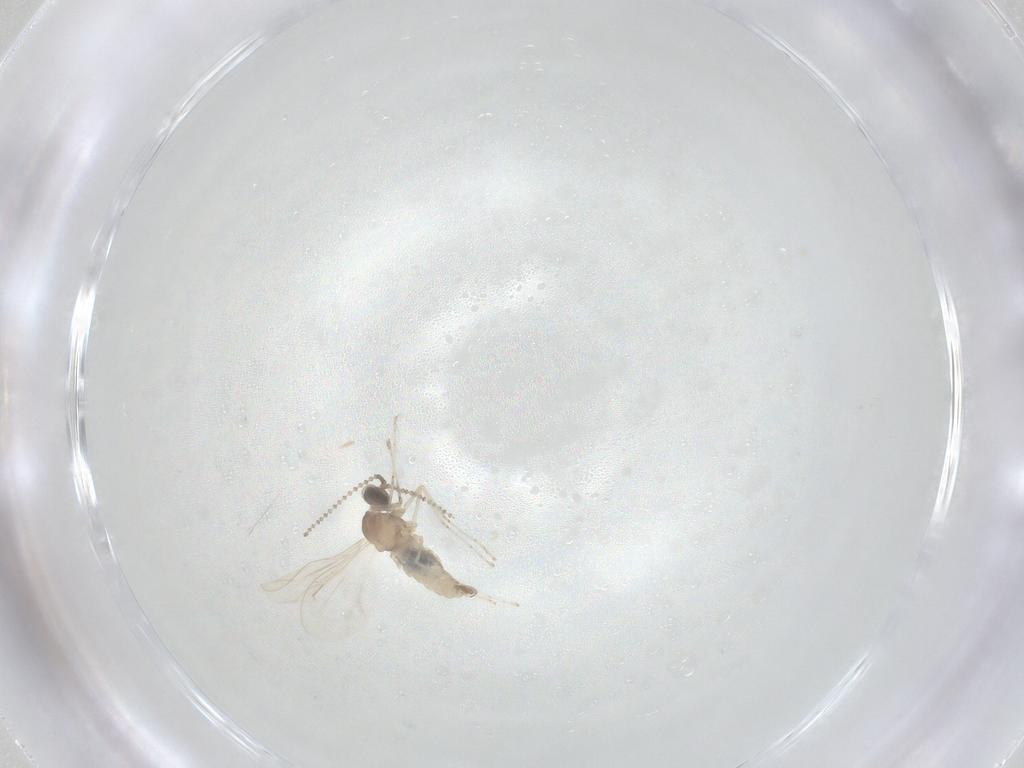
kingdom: Animalia
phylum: Arthropoda
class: Insecta
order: Diptera
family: Cecidomyiidae
